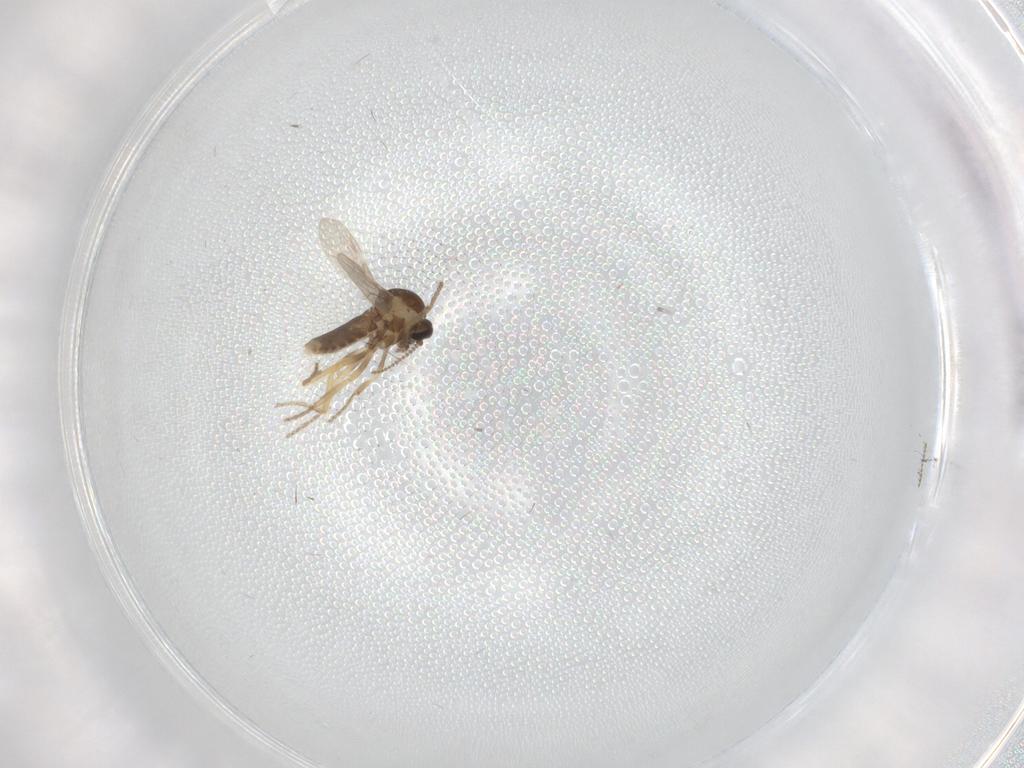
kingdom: Animalia
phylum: Arthropoda
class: Insecta
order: Diptera
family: Ceratopogonidae
